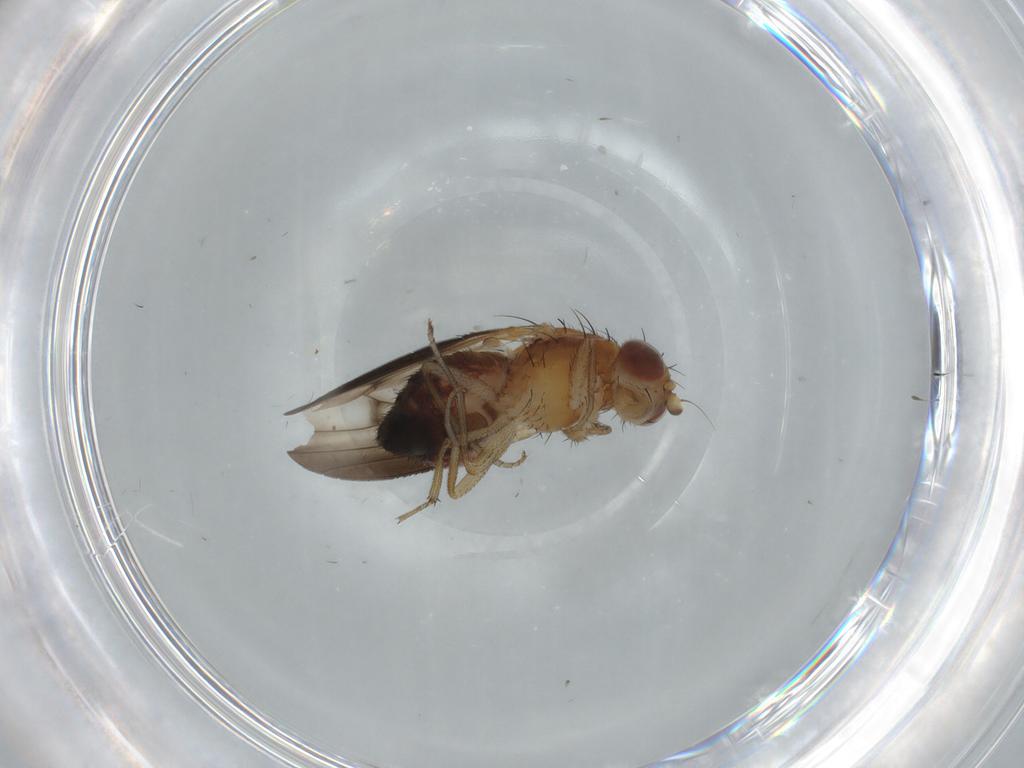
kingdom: Animalia
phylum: Arthropoda
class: Insecta
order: Diptera
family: Heleomyzidae
